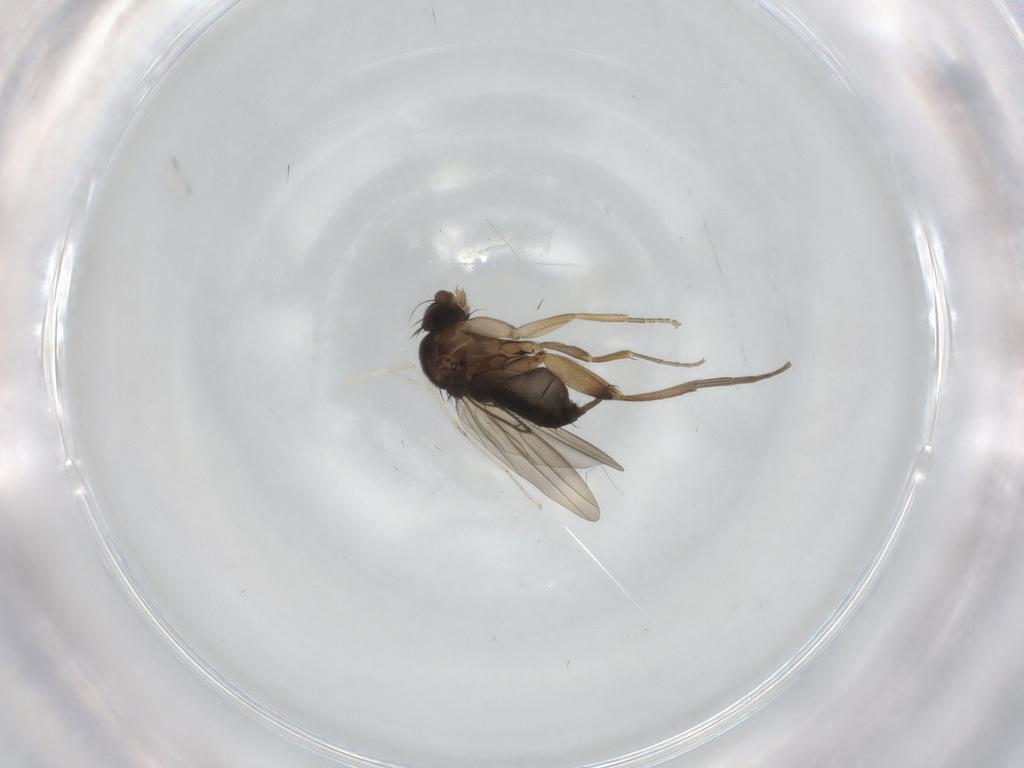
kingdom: Animalia
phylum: Arthropoda
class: Insecta
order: Diptera
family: Phoridae
